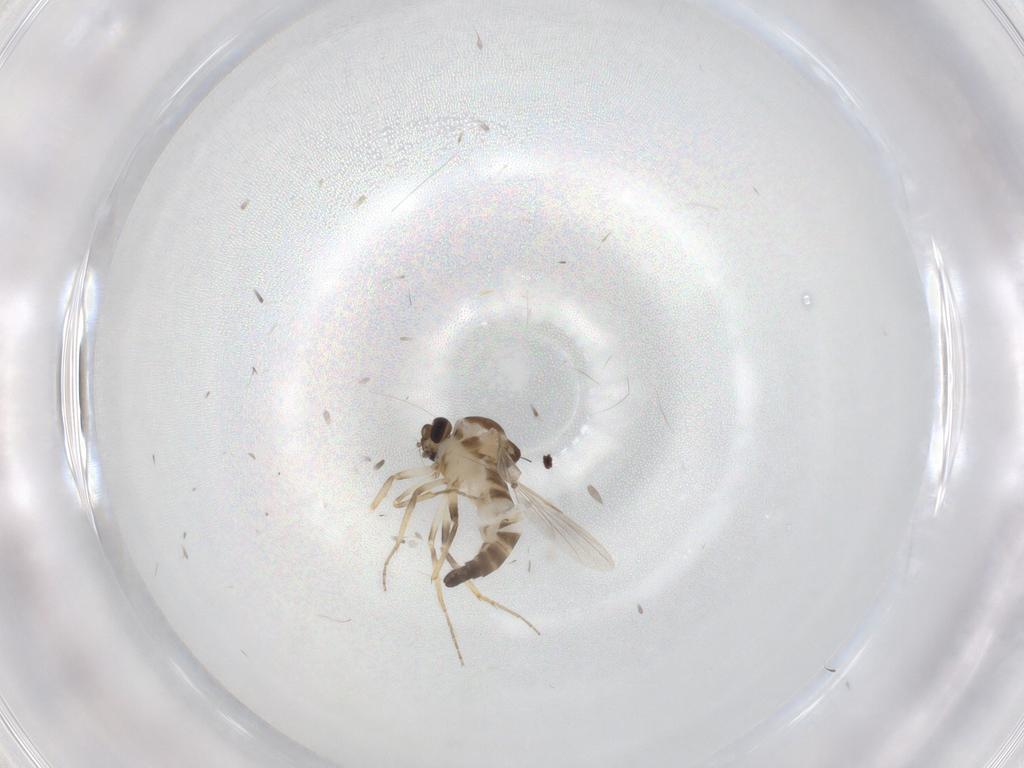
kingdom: Animalia
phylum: Arthropoda
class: Insecta
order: Diptera
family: Ceratopogonidae
